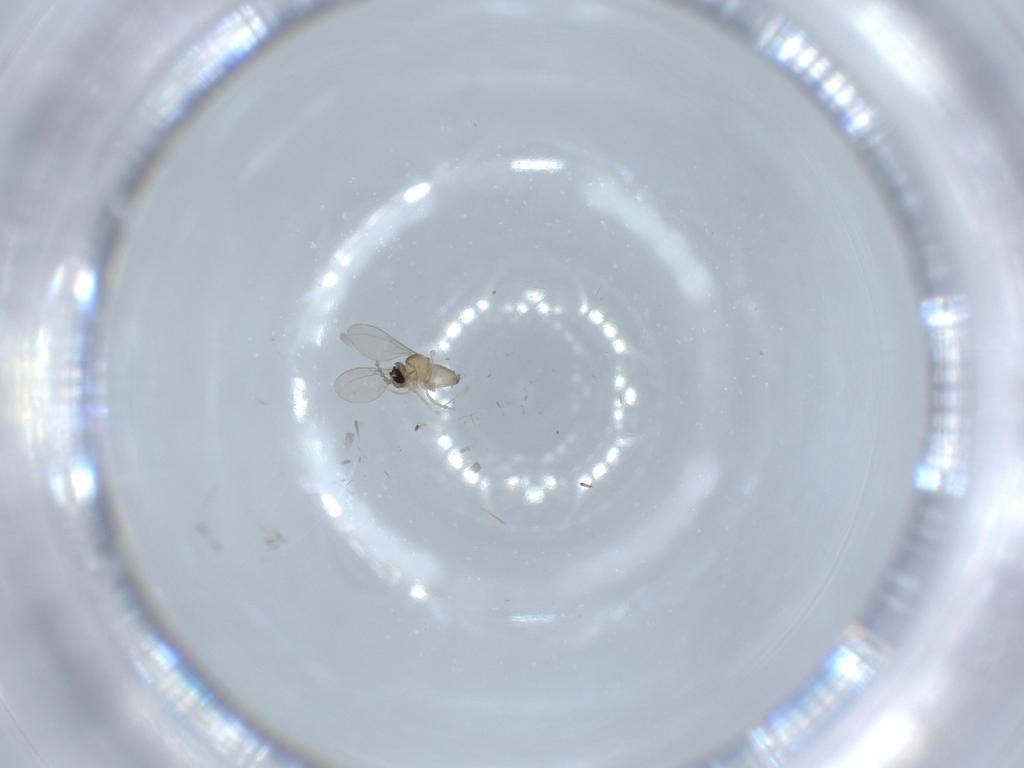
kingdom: Animalia
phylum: Arthropoda
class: Insecta
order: Diptera
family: Cecidomyiidae
